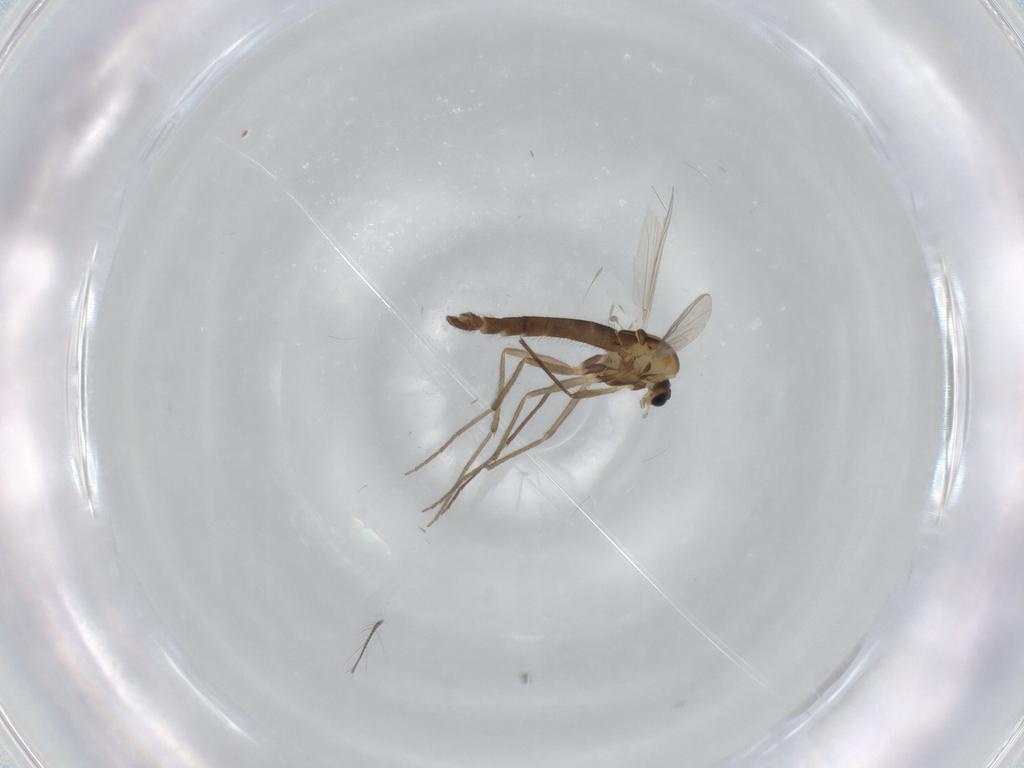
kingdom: Animalia
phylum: Arthropoda
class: Insecta
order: Diptera
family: Chironomidae
